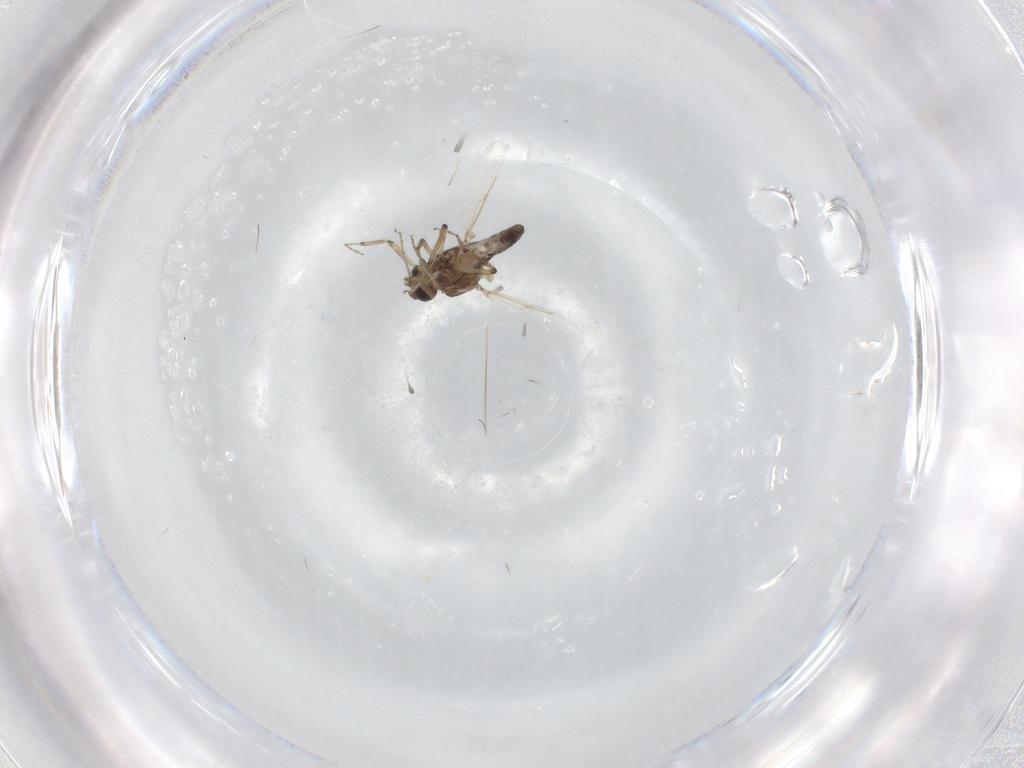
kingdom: Animalia
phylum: Arthropoda
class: Insecta
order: Diptera
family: Ceratopogonidae
